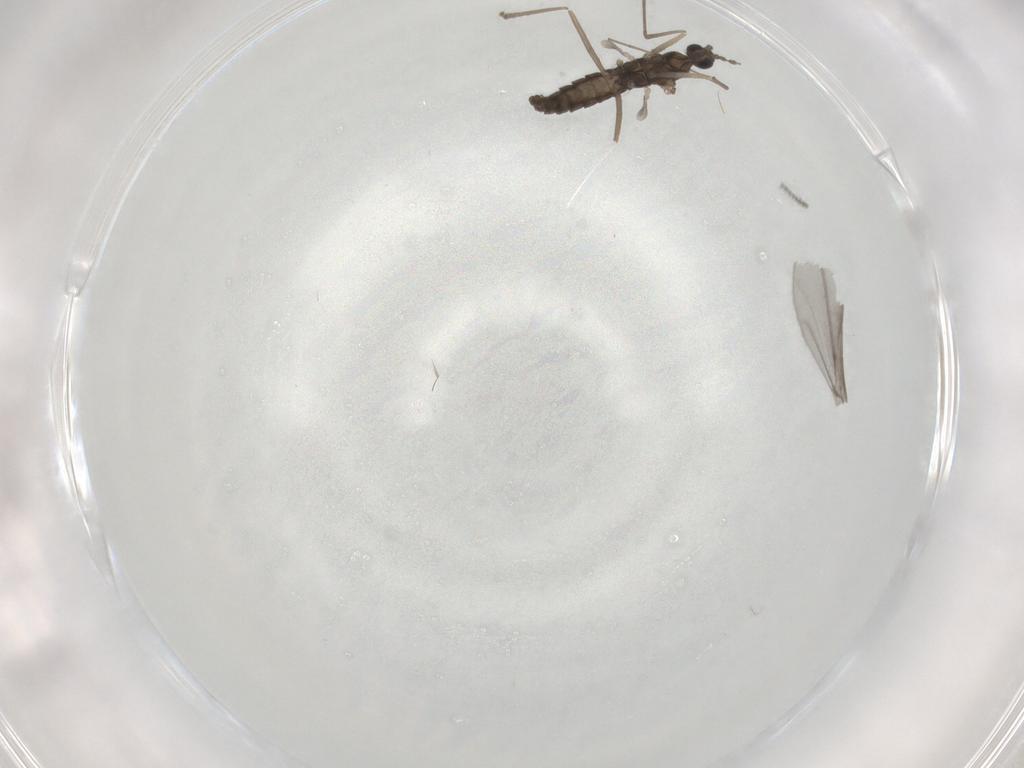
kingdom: Animalia
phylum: Arthropoda
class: Insecta
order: Diptera
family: Cecidomyiidae
